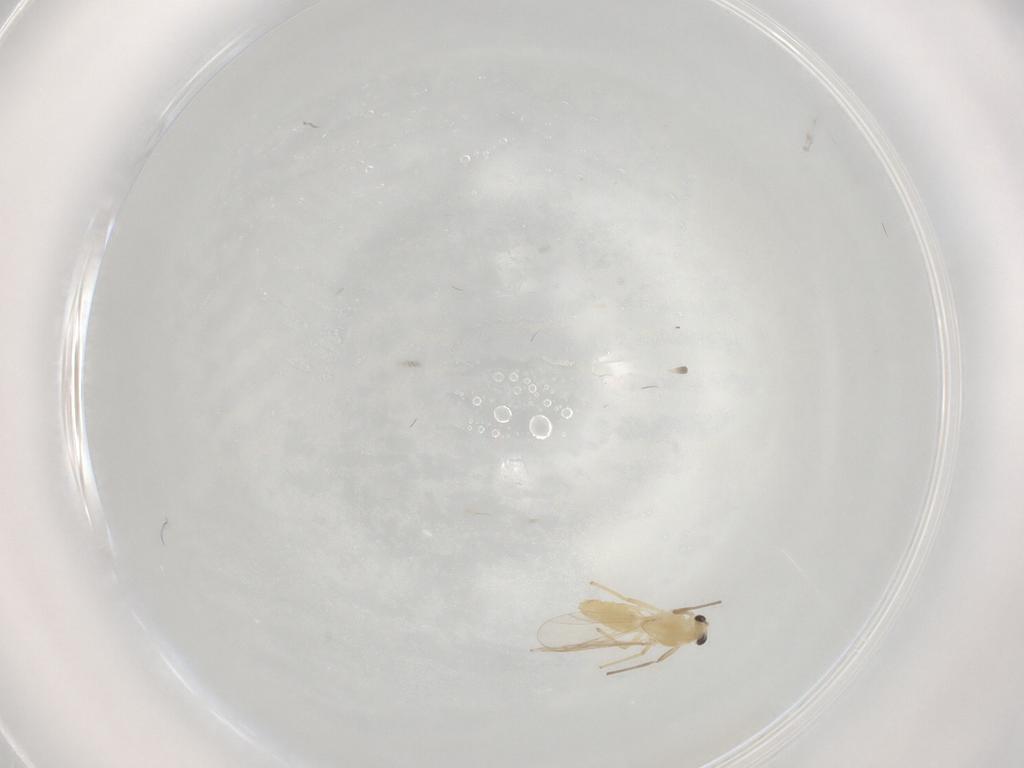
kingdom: Animalia
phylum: Arthropoda
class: Insecta
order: Diptera
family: Chironomidae
